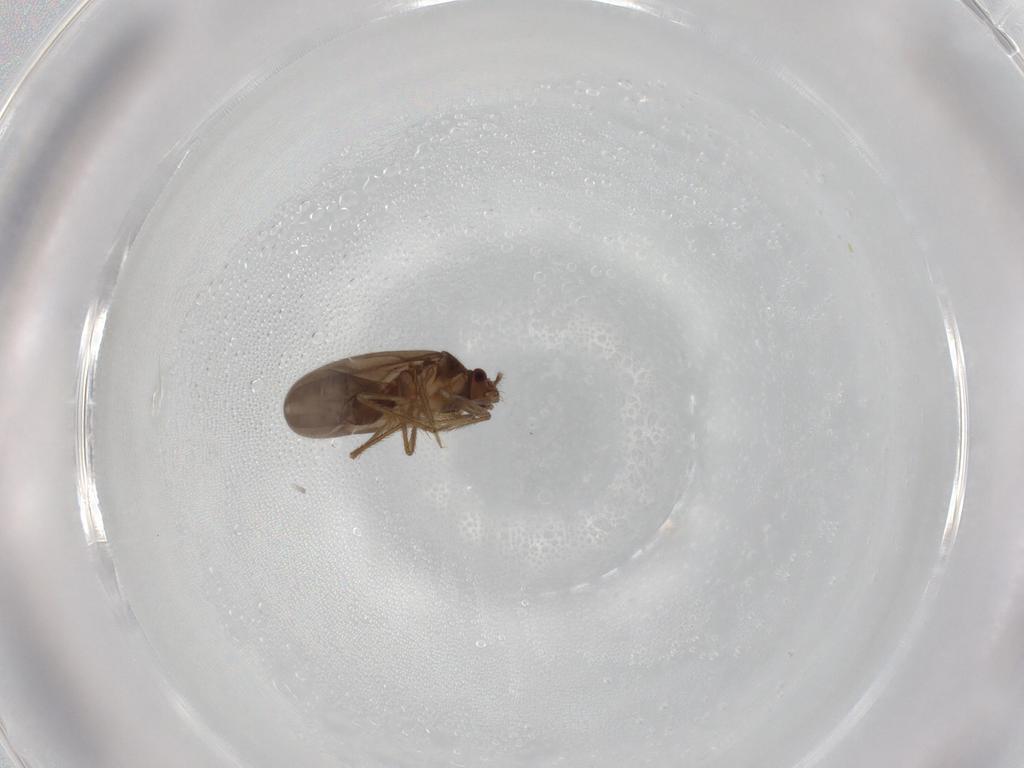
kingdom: Animalia
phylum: Arthropoda
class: Insecta
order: Hemiptera
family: Ceratocombidae
